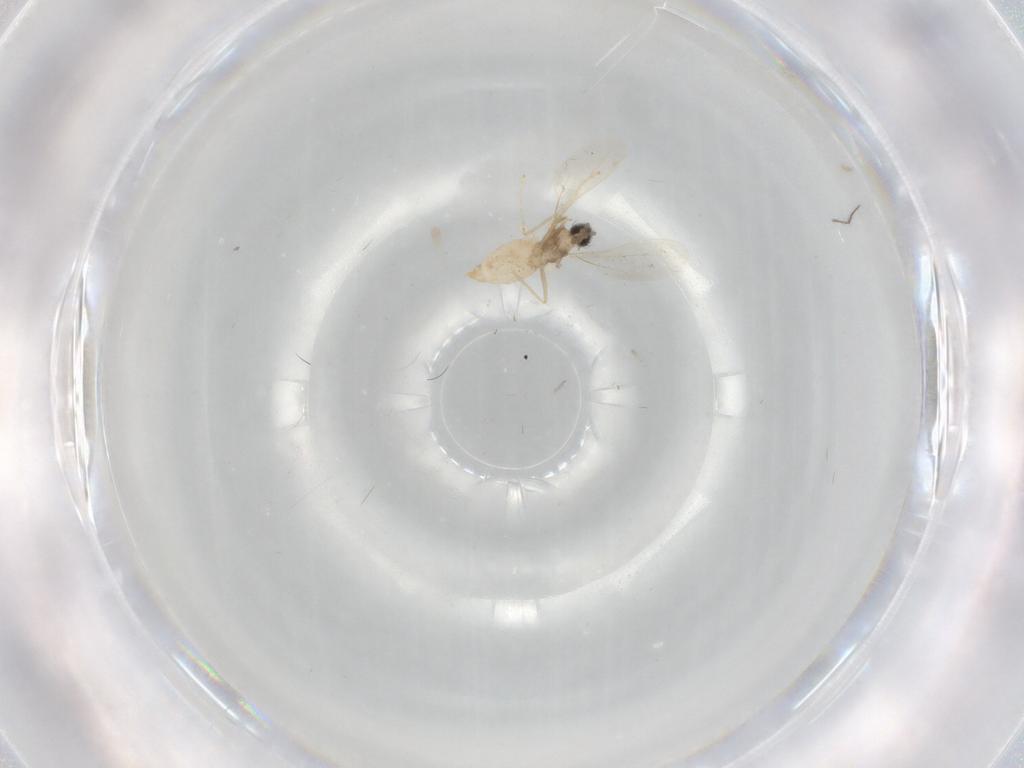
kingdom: Animalia
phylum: Arthropoda
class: Insecta
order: Diptera
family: Cecidomyiidae
